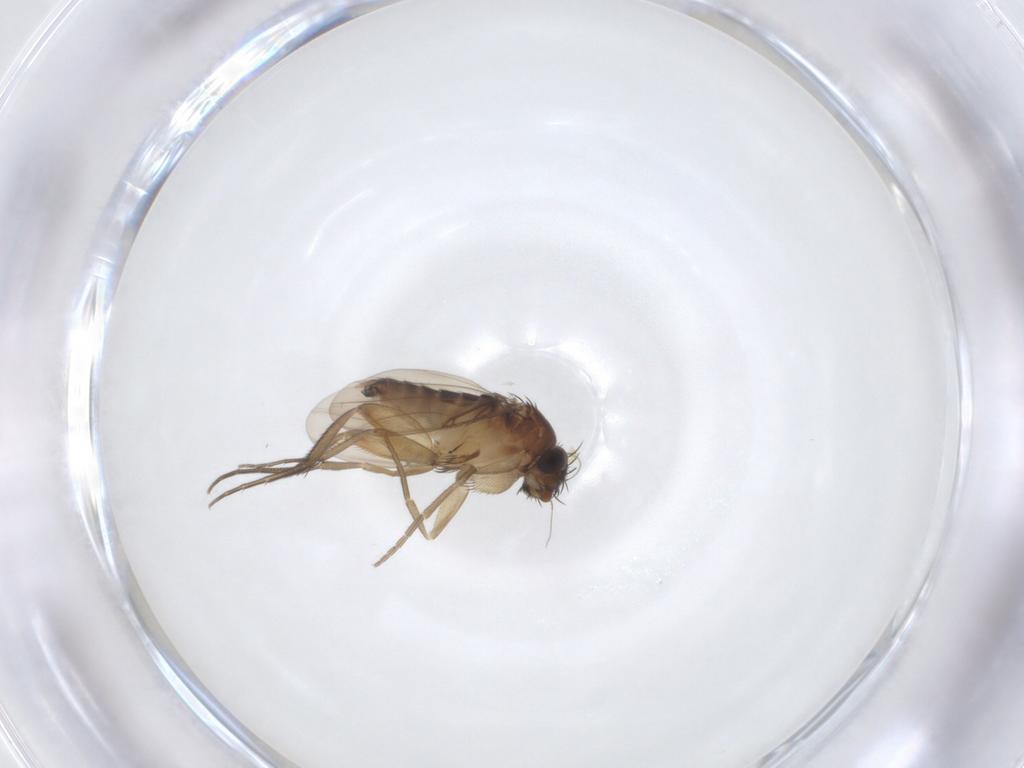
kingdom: Animalia
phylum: Arthropoda
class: Insecta
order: Diptera
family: Phoridae
